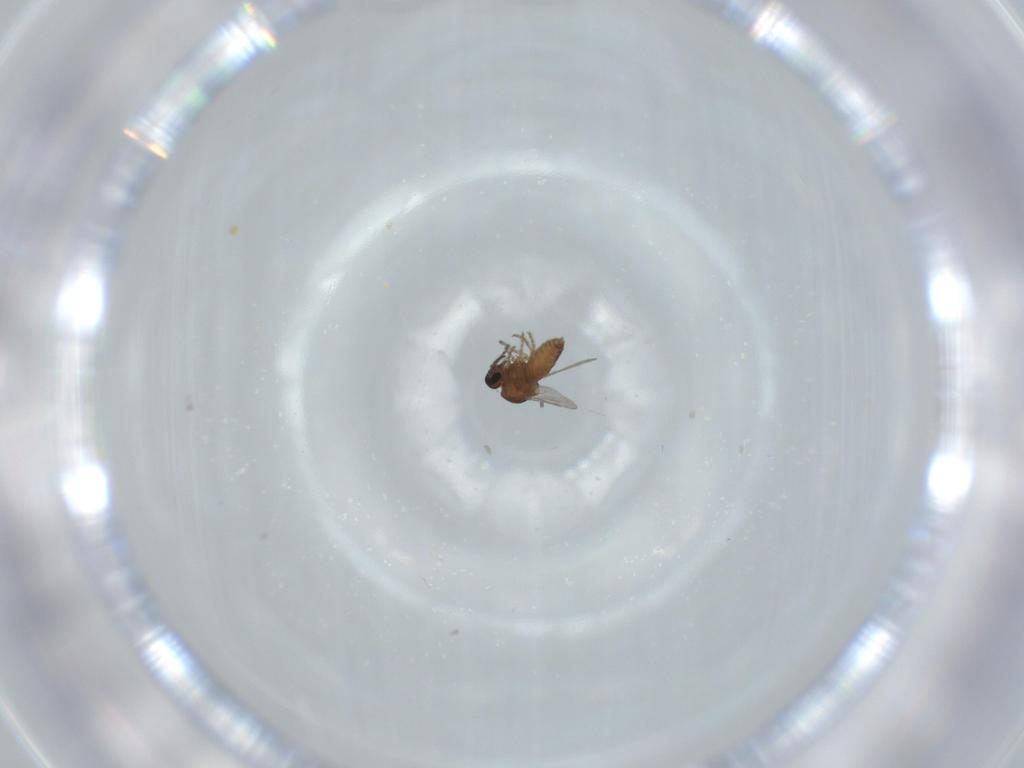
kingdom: Animalia
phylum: Arthropoda
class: Insecta
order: Diptera
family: Ceratopogonidae
